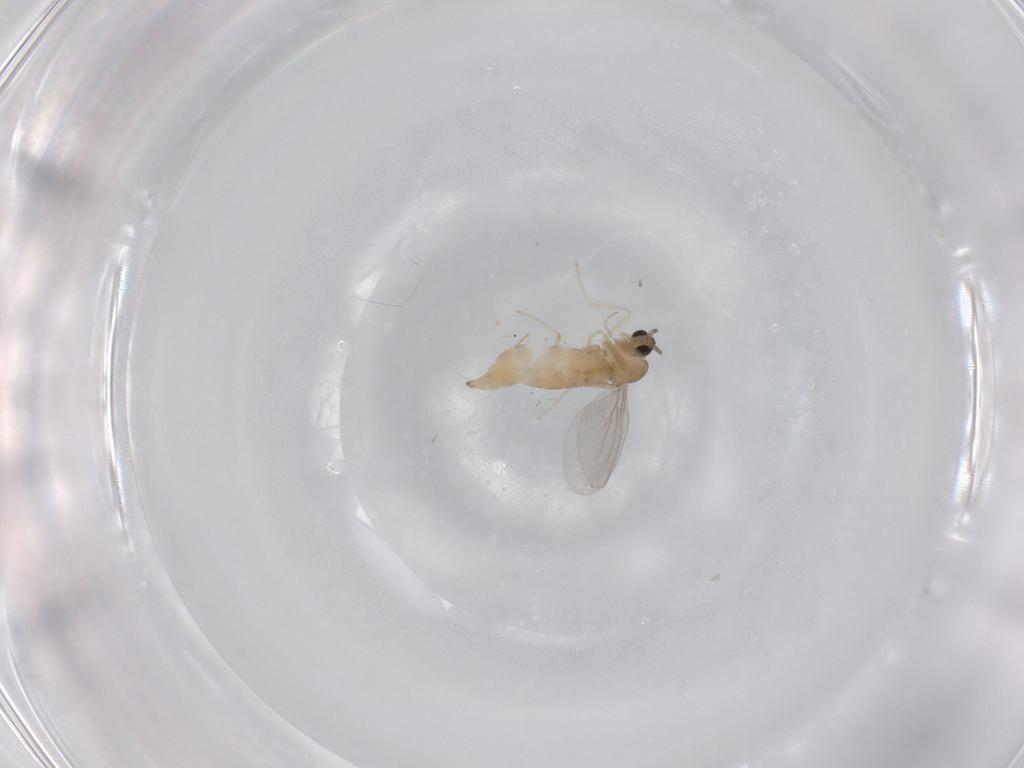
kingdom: Animalia
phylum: Arthropoda
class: Insecta
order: Diptera
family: Cecidomyiidae
